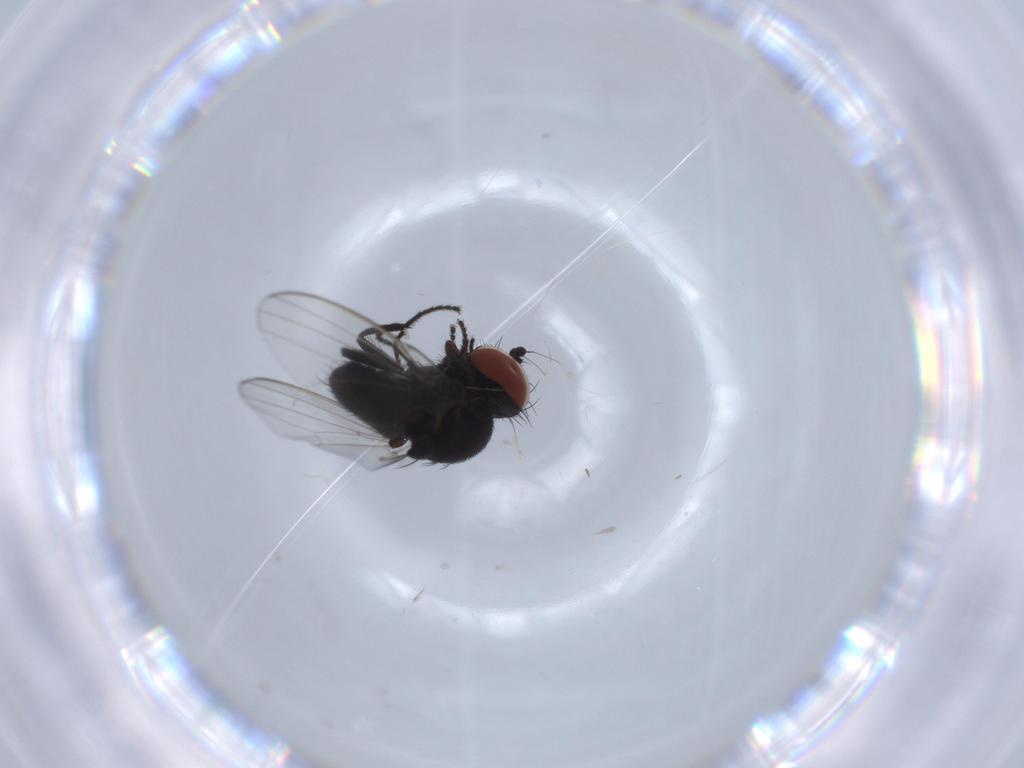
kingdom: Animalia
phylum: Arthropoda
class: Insecta
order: Diptera
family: Milichiidae
